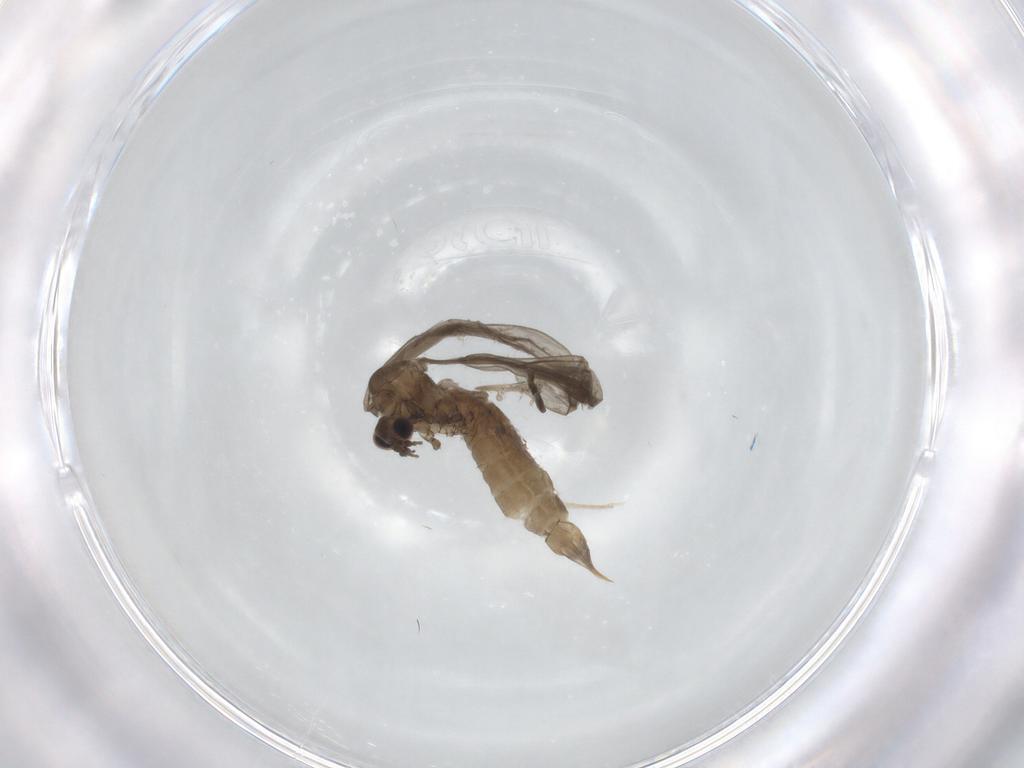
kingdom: Animalia
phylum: Arthropoda
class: Insecta
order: Diptera
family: Cecidomyiidae
